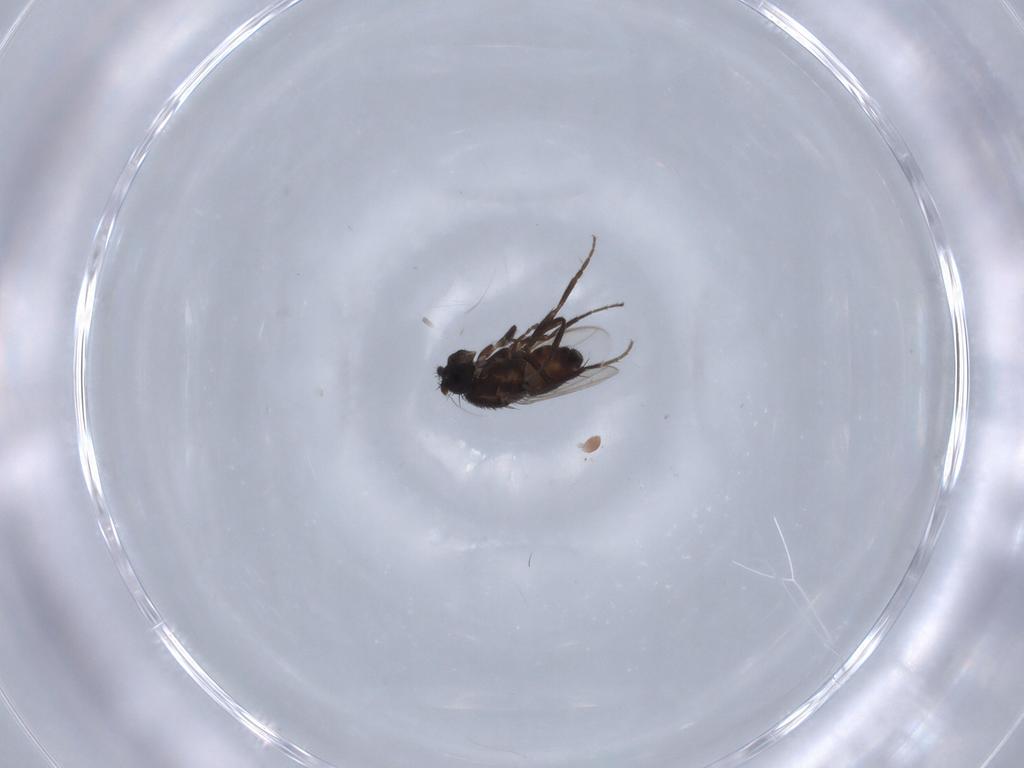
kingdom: Animalia
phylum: Arthropoda
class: Insecta
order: Diptera
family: Sphaeroceridae
